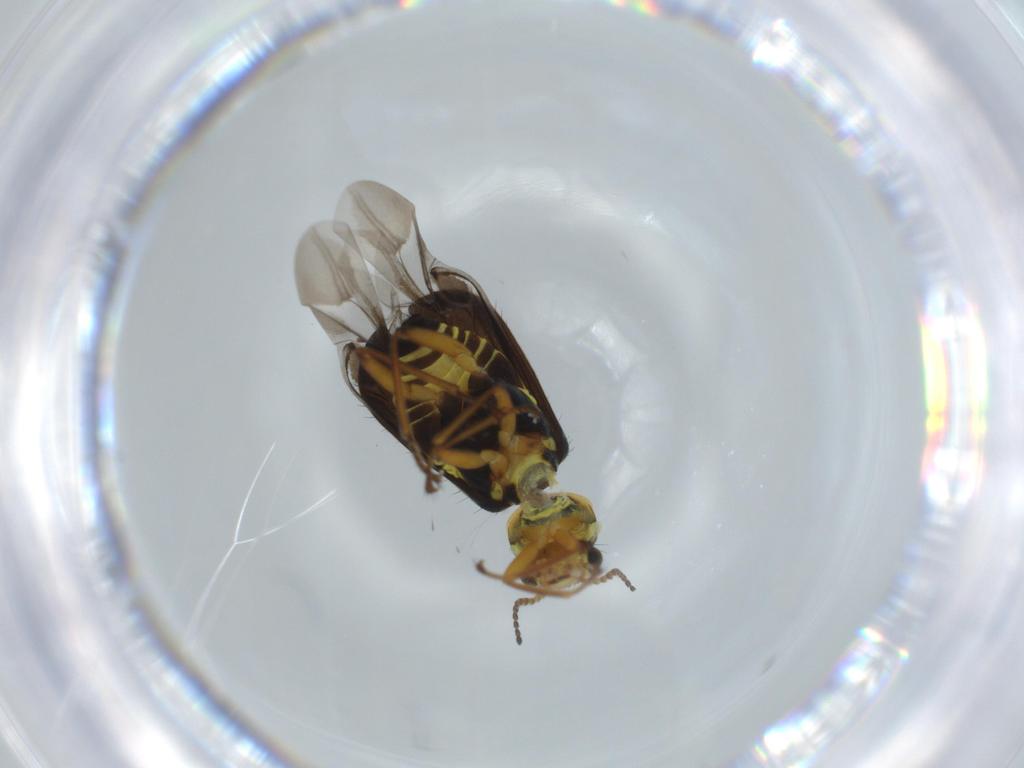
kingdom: Animalia
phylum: Arthropoda
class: Insecta
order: Coleoptera
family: Melyridae
